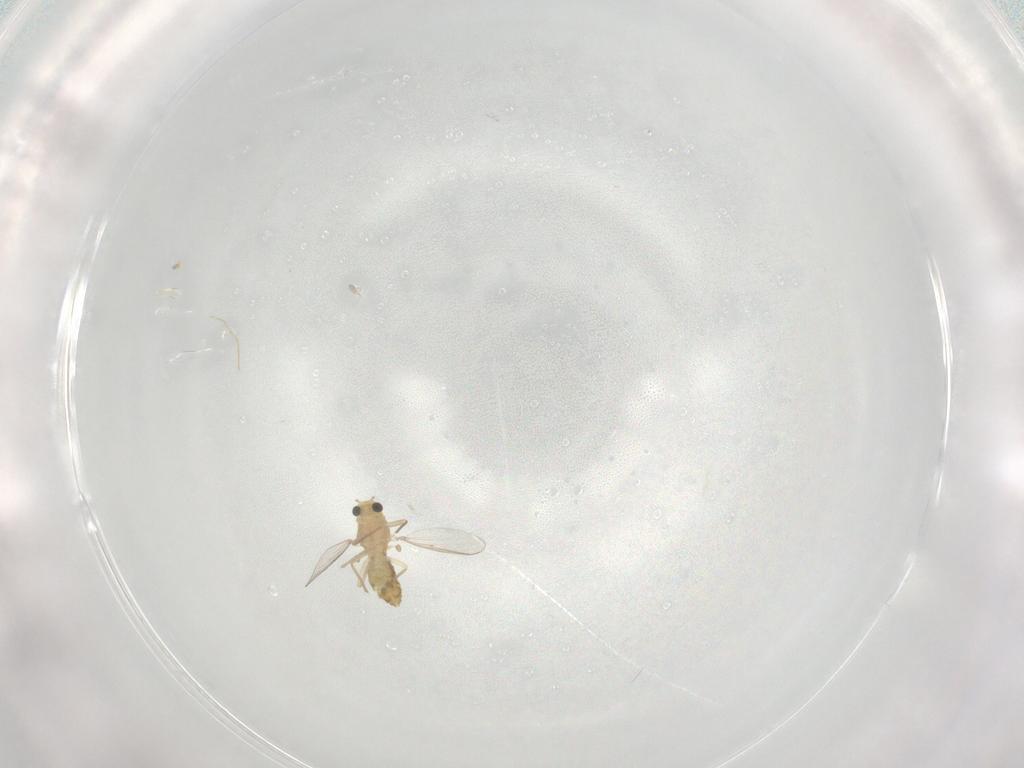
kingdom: Animalia
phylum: Arthropoda
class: Insecta
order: Diptera
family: Chironomidae
